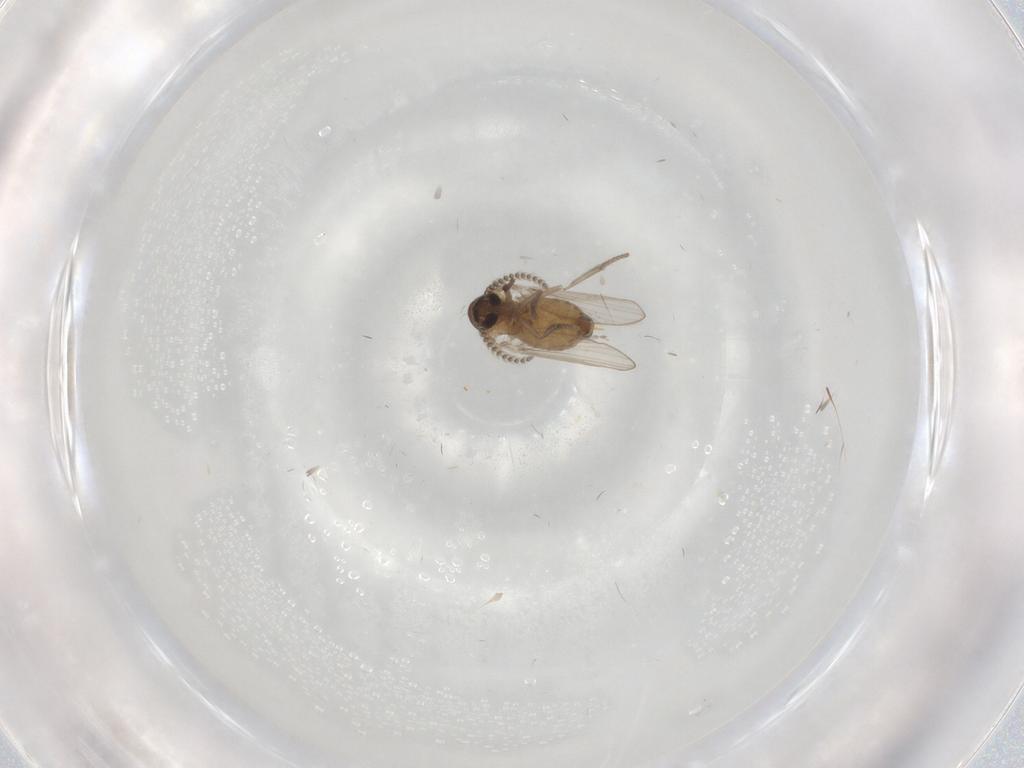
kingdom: Animalia
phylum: Arthropoda
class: Insecta
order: Diptera
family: Psychodidae
